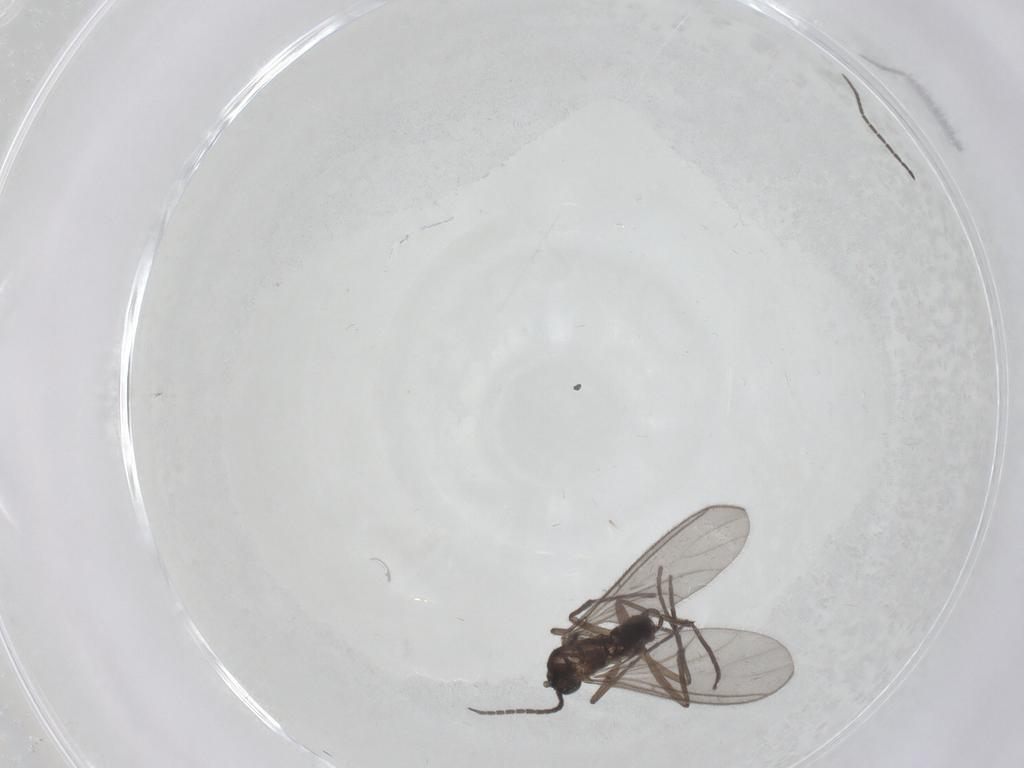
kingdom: Animalia
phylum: Arthropoda
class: Insecta
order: Diptera
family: Sciaridae
